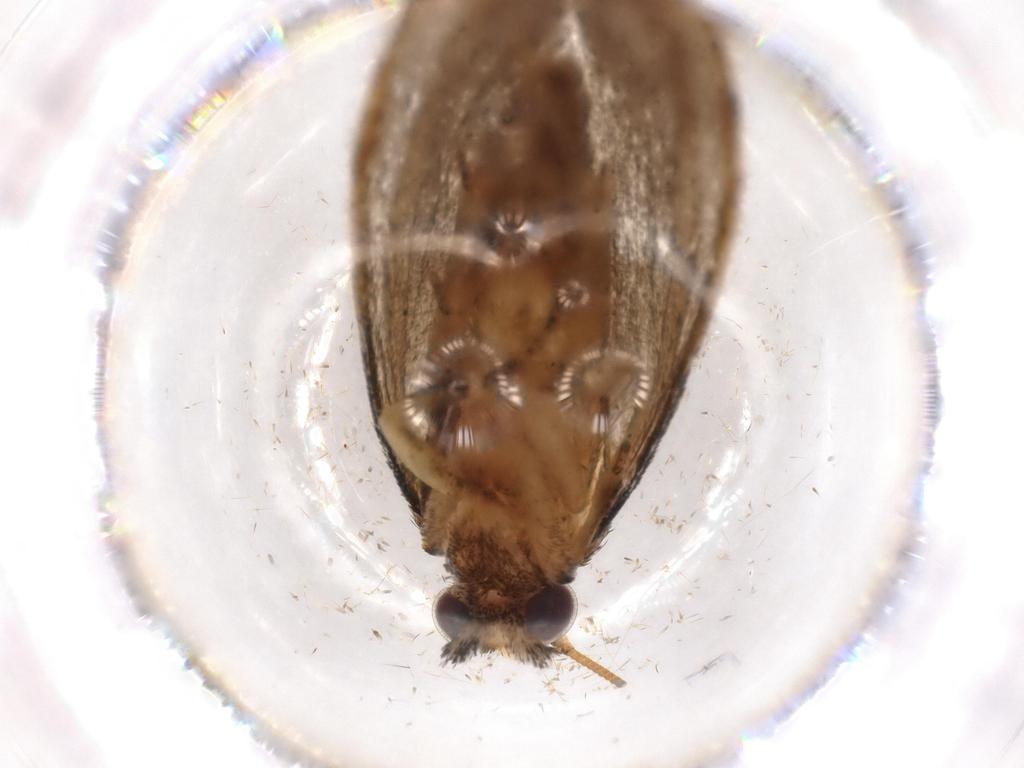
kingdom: Animalia
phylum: Arthropoda
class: Insecta
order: Lepidoptera
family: Tineidae
